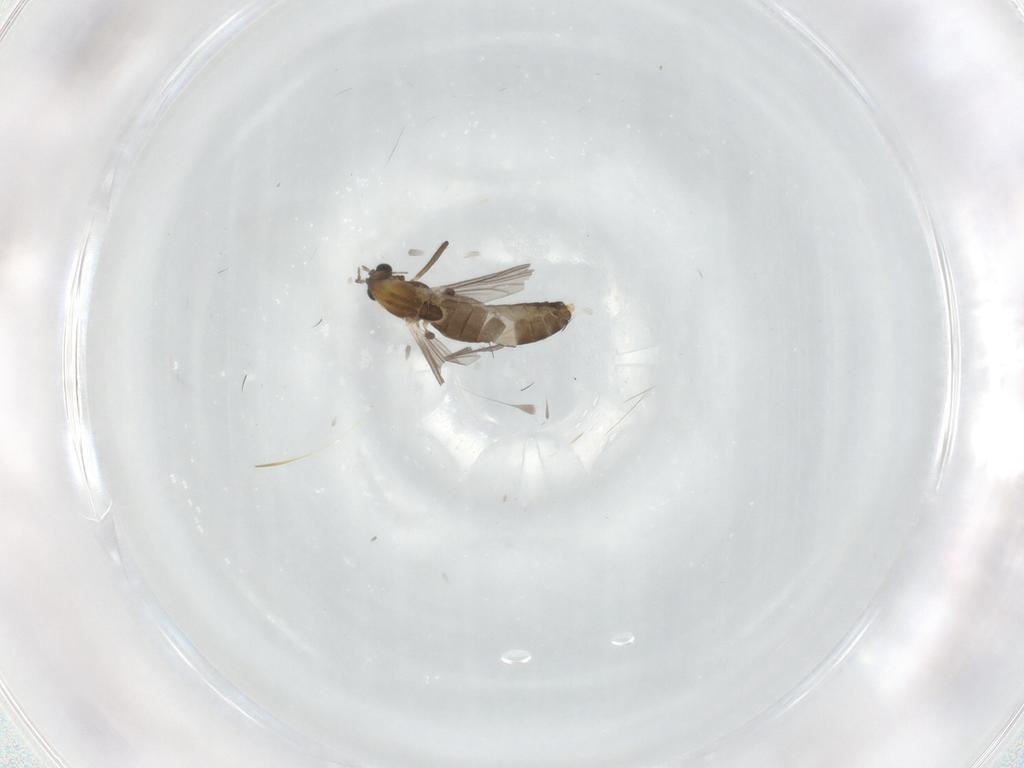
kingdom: Animalia
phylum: Arthropoda
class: Insecta
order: Diptera
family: Chironomidae
